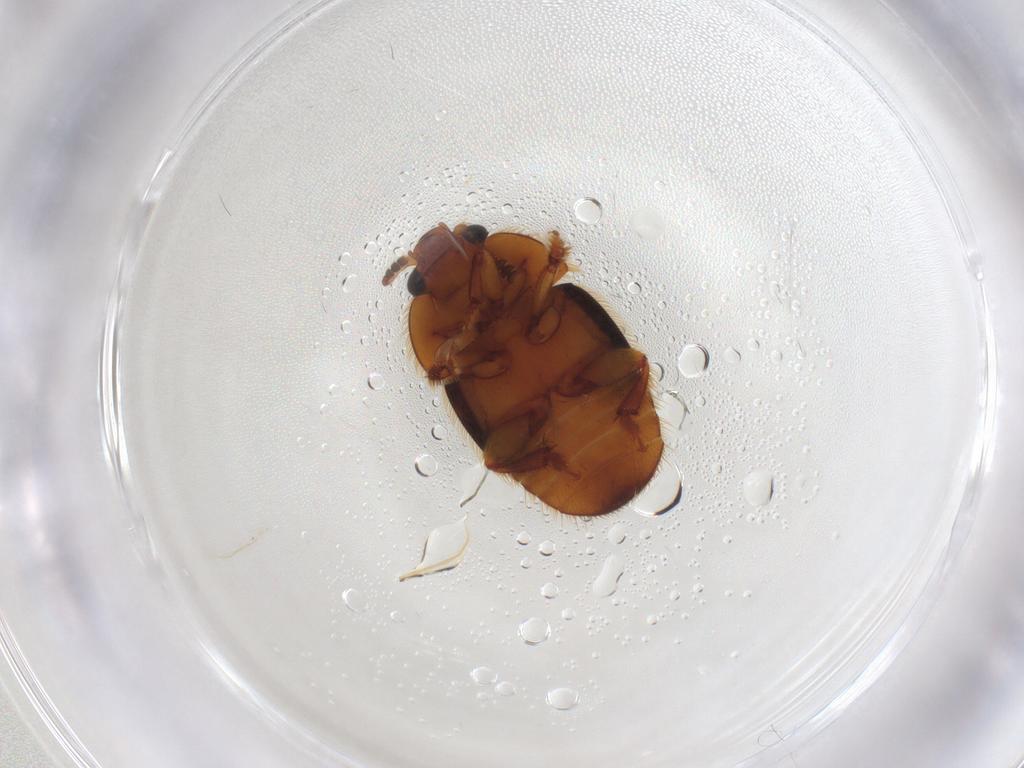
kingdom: Animalia
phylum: Arthropoda
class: Insecta
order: Coleoptera
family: Nitidulidae
